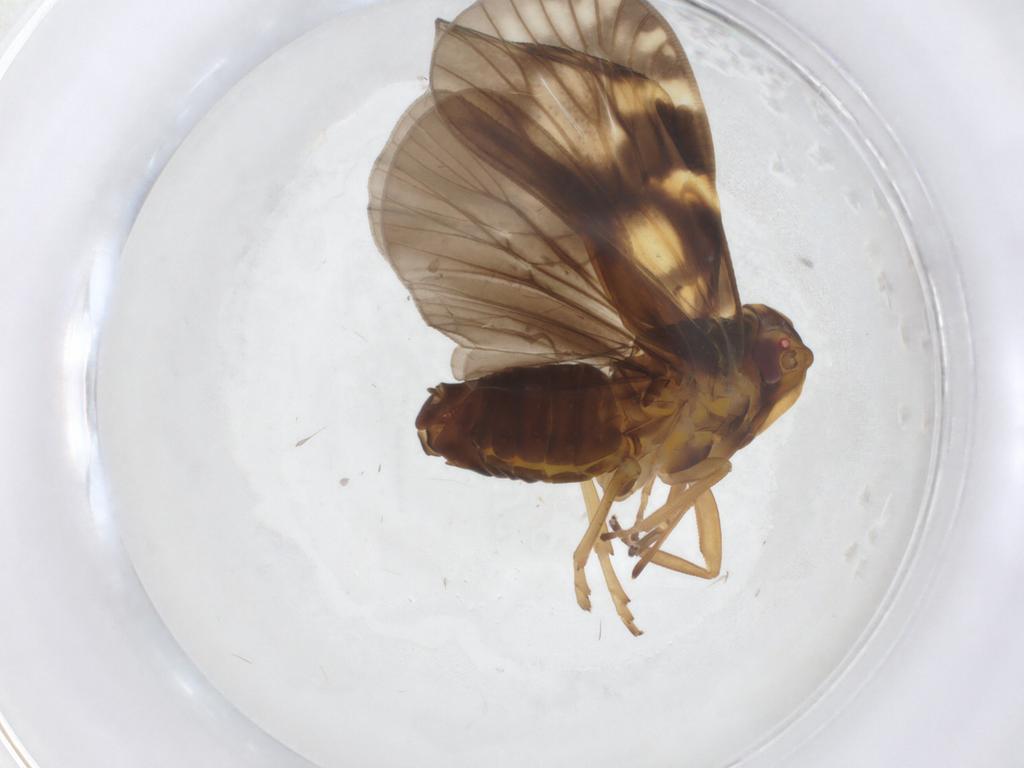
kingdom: Animalia
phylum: Arthropoda
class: Insecta
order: Hemiptera
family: Cixiidae
